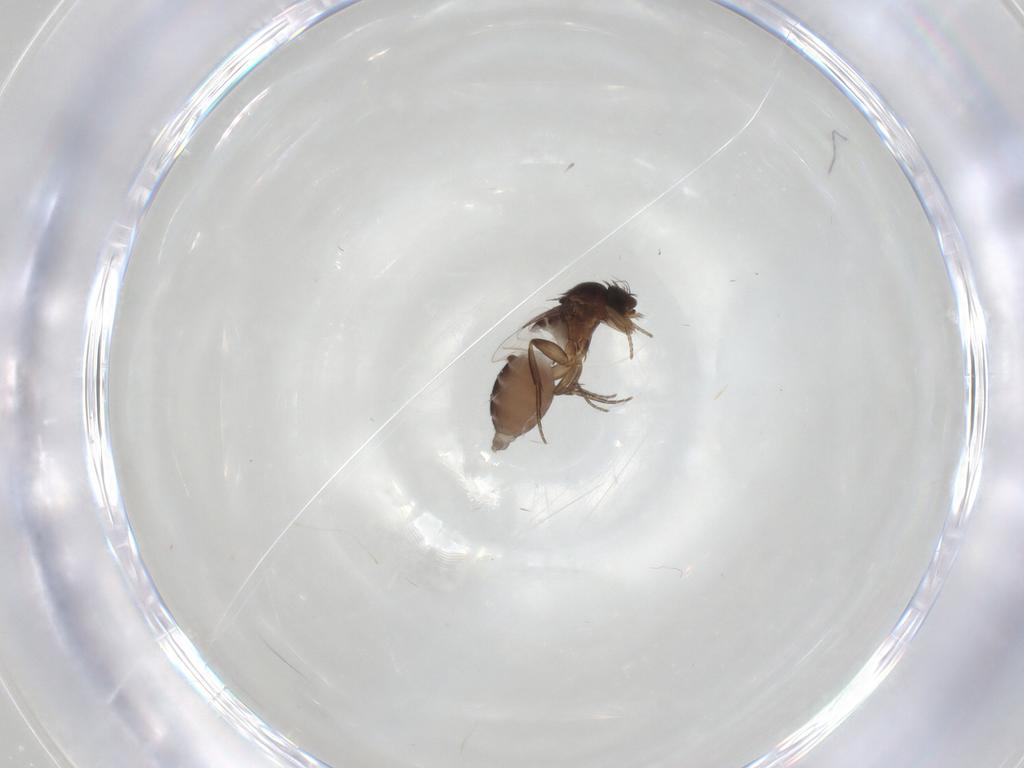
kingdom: Animalia
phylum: Arthropoda
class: Insecta
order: Diptera
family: Phoridae
